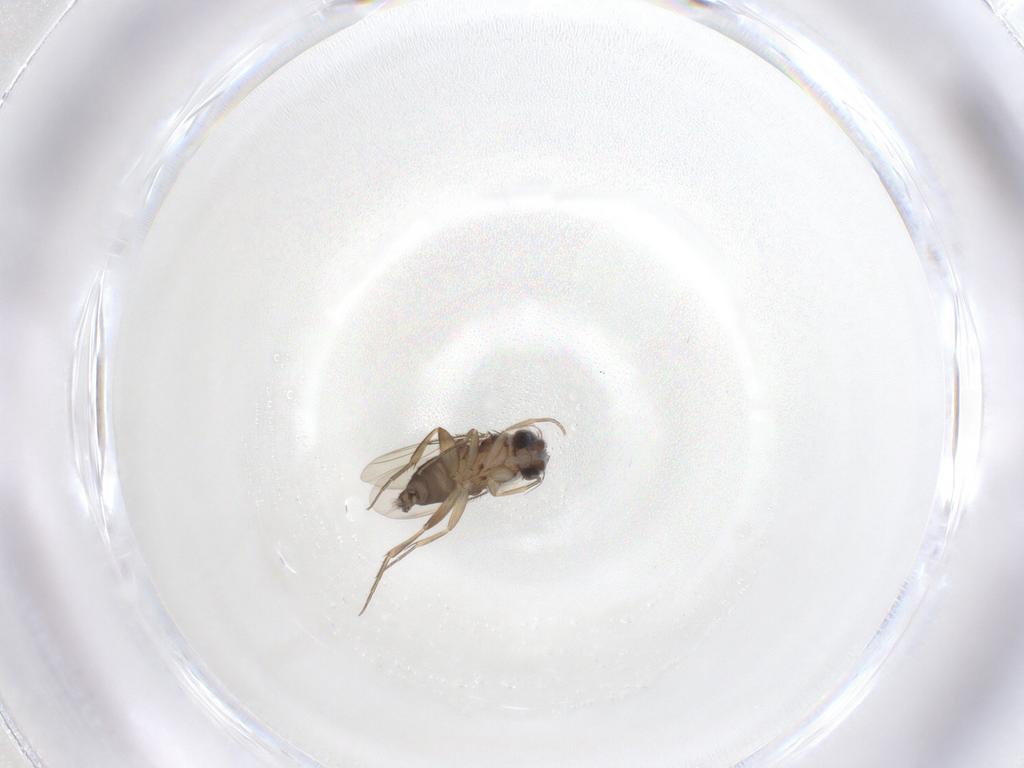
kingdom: Animalia
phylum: Arthropoda
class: Insecta
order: Diptera
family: Phoridae
